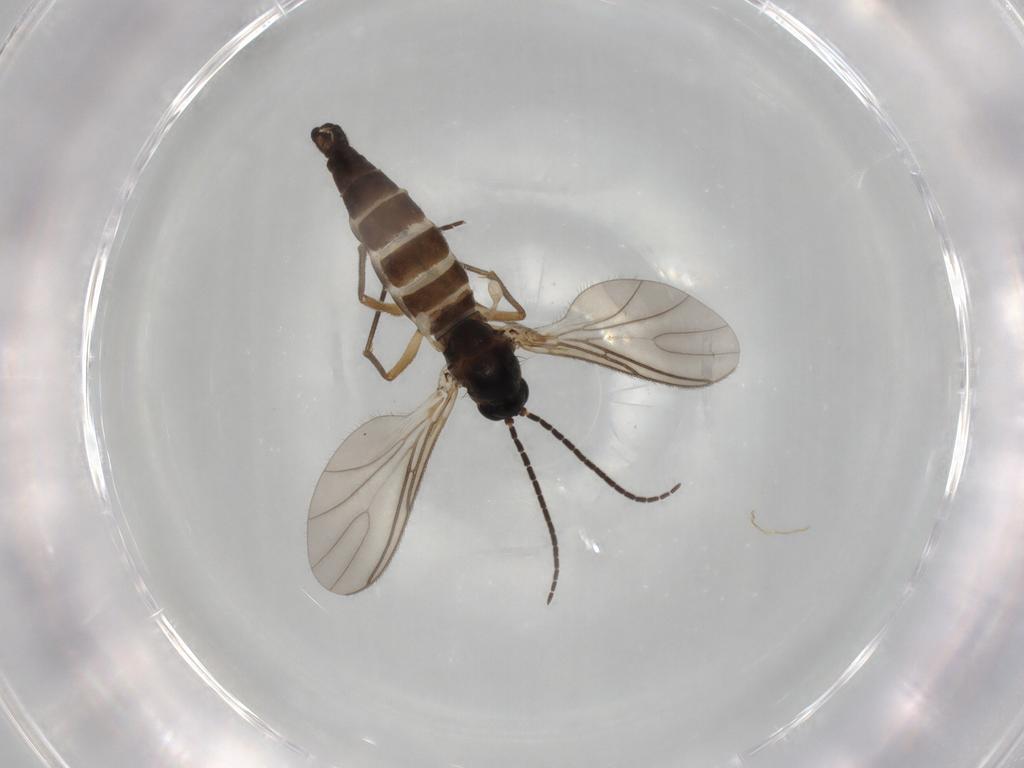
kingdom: Animalia
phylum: Arthropoda
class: Insecta
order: Diptera
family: Sciaridae
